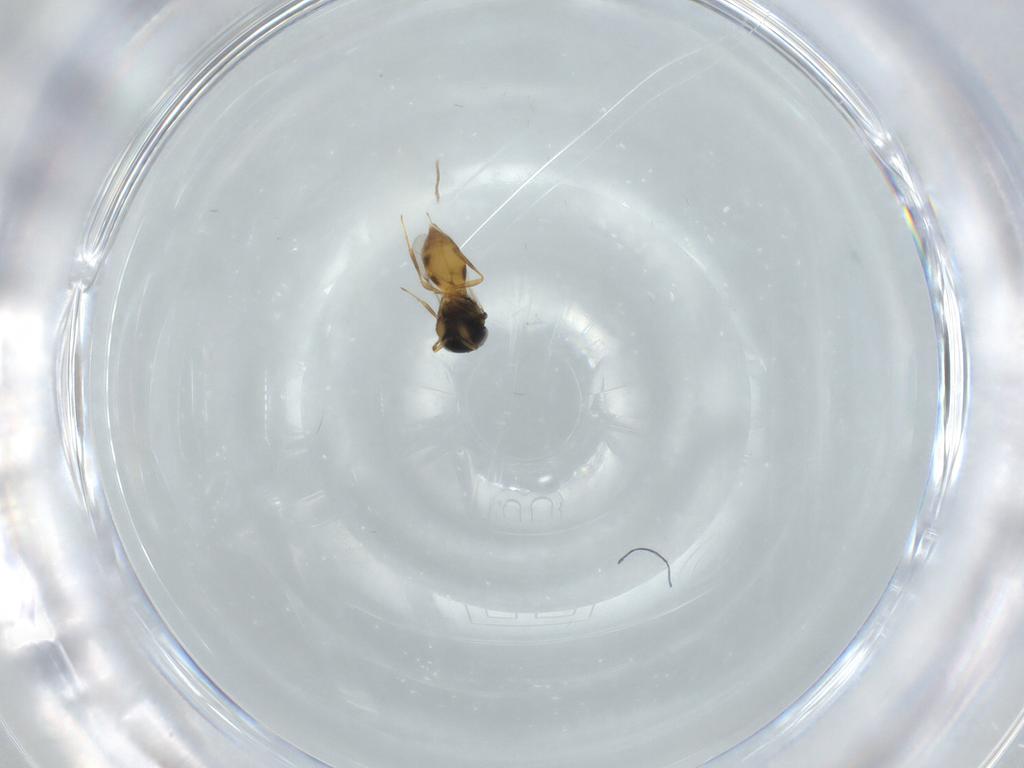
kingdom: Animalia
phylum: Arthropoda
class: Arachnida
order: Araneae
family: Pholcidae
